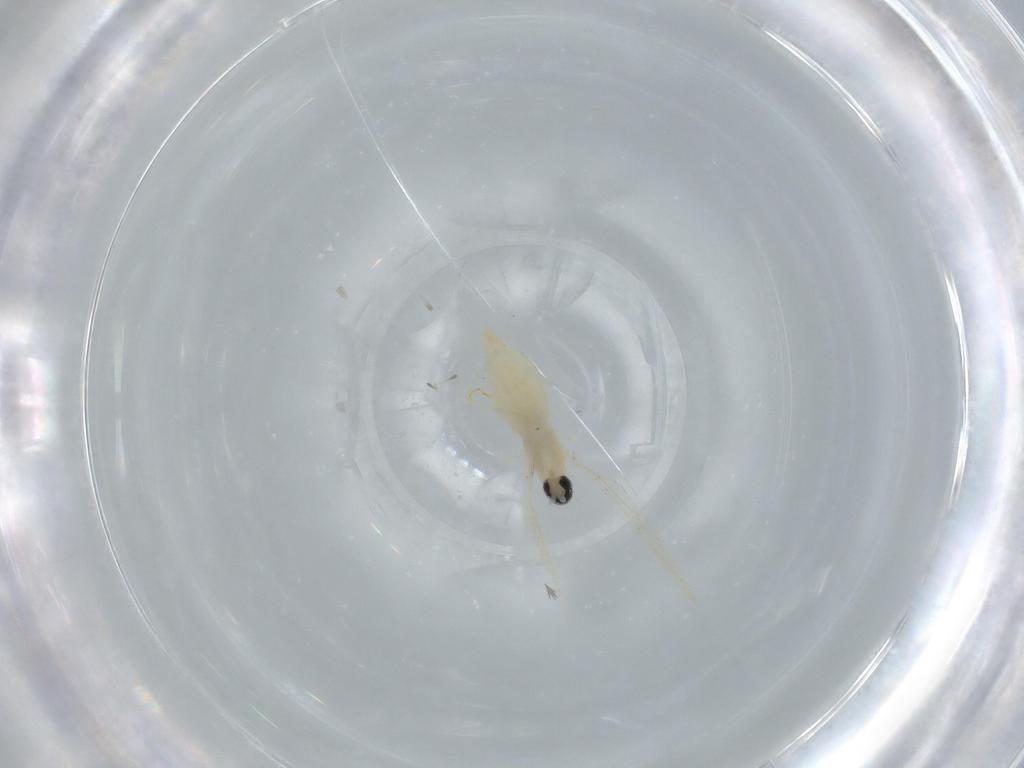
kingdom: Animalia
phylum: Arthropoda
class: Insecta
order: Diptera
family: Cecidomyiidae
